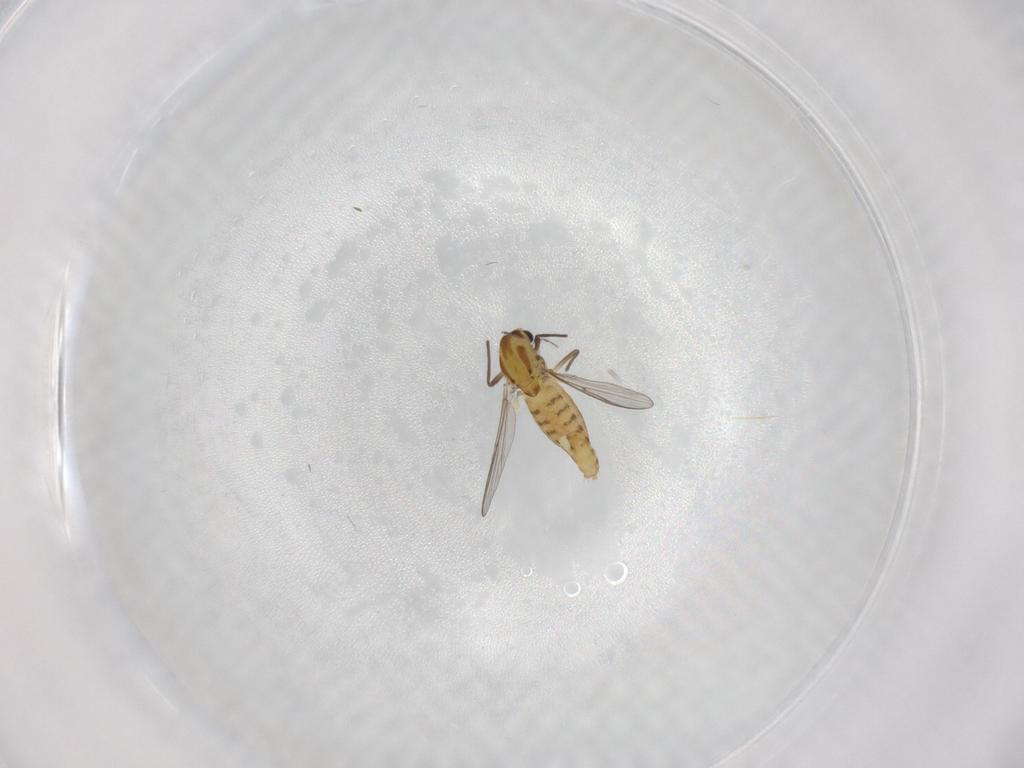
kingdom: Animalia
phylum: Arthropoda
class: Insecta
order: Diptera
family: Chironomidae
